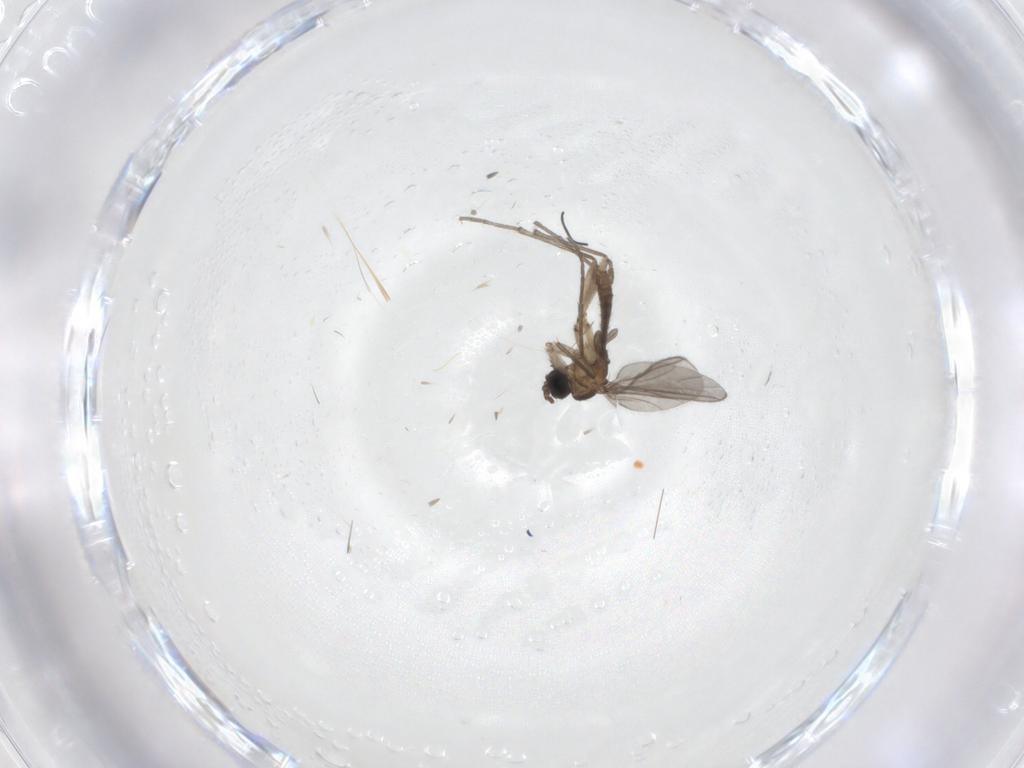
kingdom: Animalia
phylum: Arthropoda
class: Insecta
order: Diptera
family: Sciaridae
